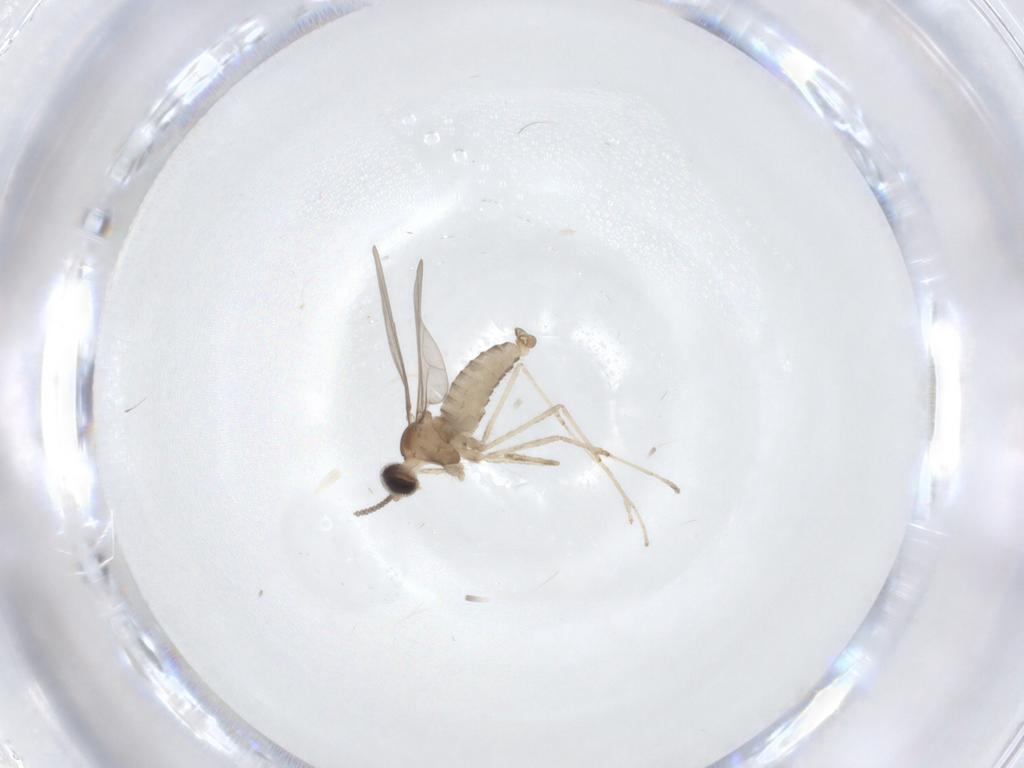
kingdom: Animalia
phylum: Arthropoda
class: Insecta
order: Diptera
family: Cecidomyiidae
